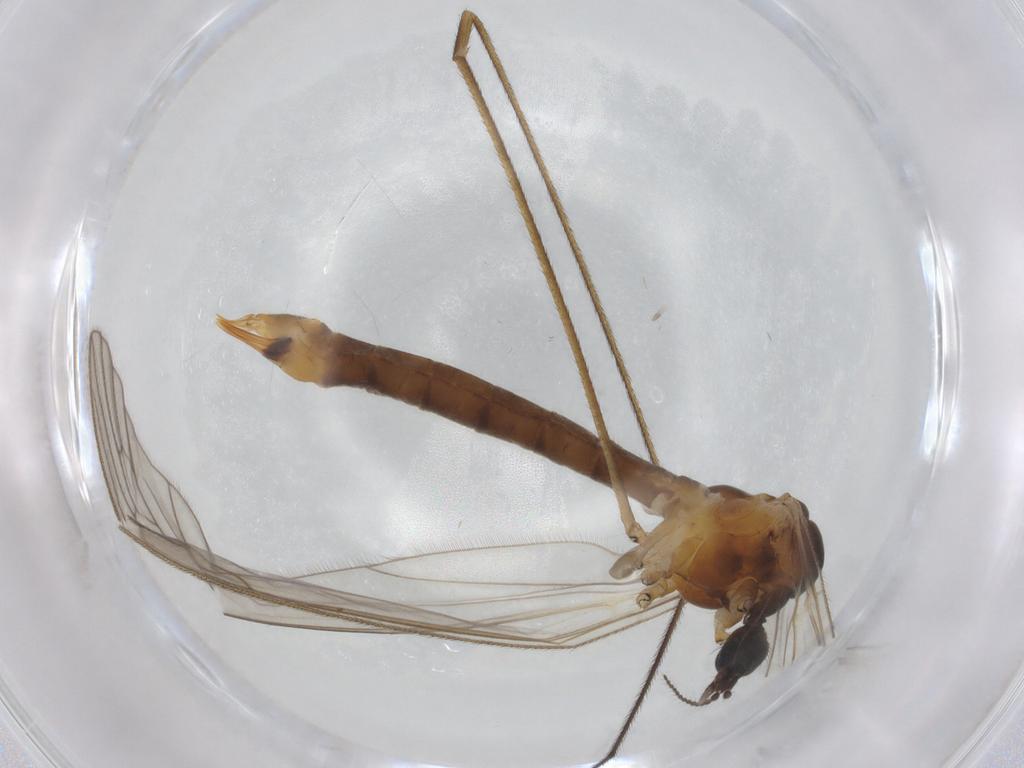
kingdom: Animalia
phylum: Arthropoda
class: Insecta
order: Diptera
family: Limoniidae
